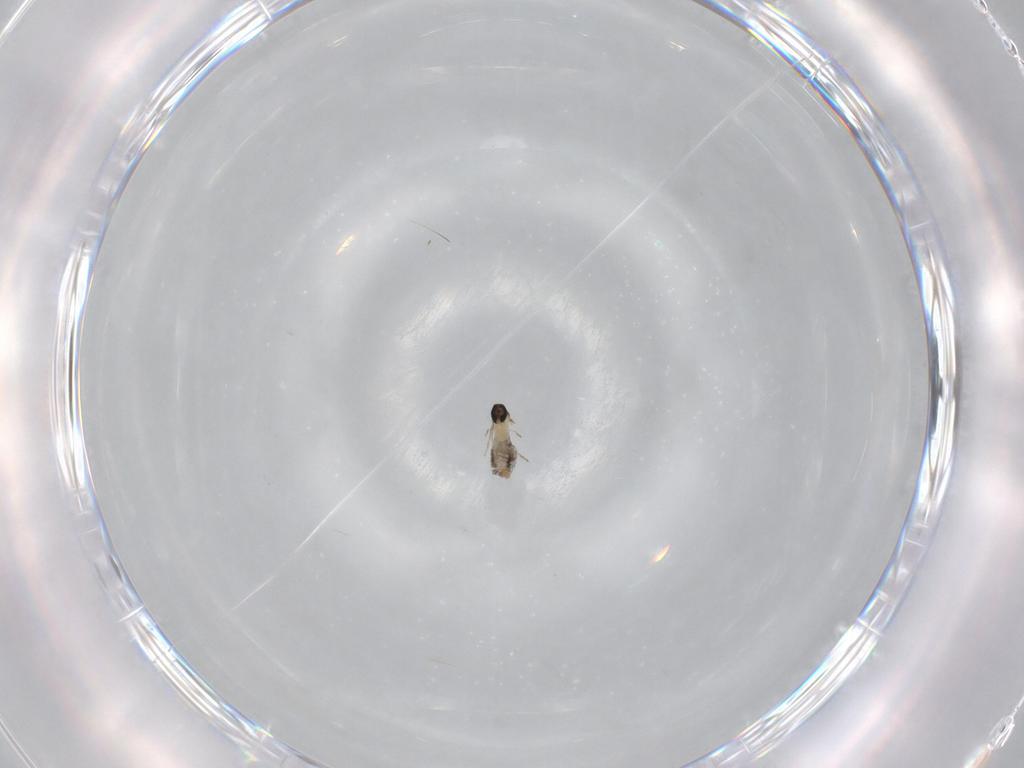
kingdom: Animalia
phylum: Arthropoda
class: Insecta
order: Diptera
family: Cecidomyiidae
